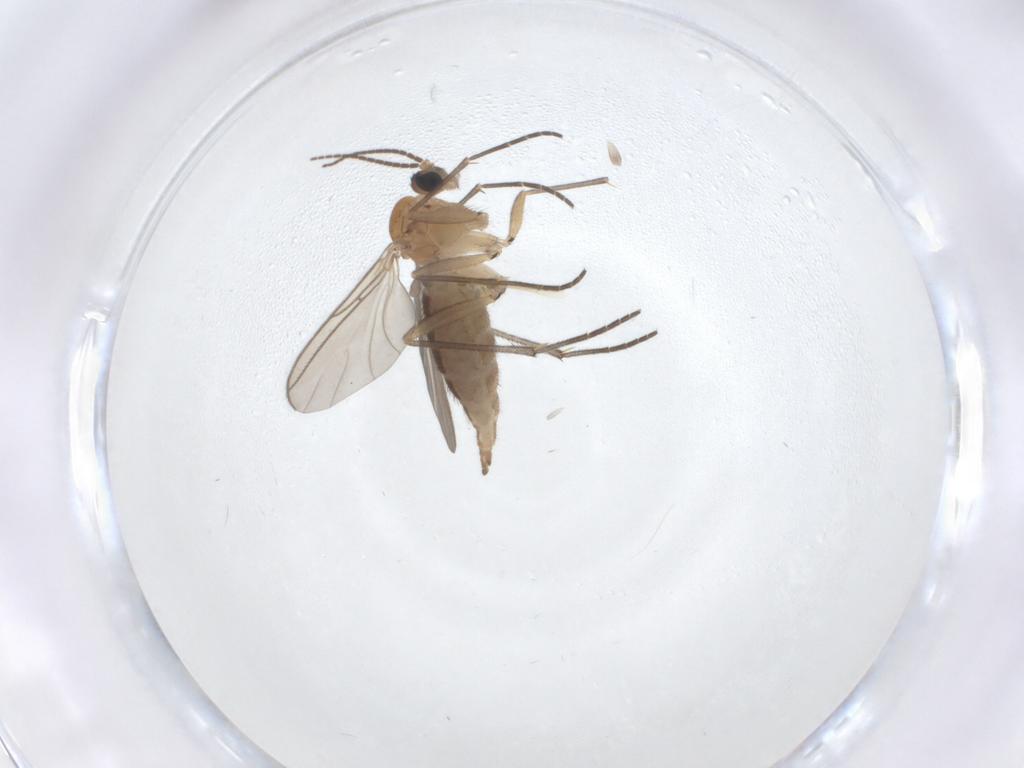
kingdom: Animalia
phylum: Arthropoda
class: Insecta
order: Diptera
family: Sciaridae
